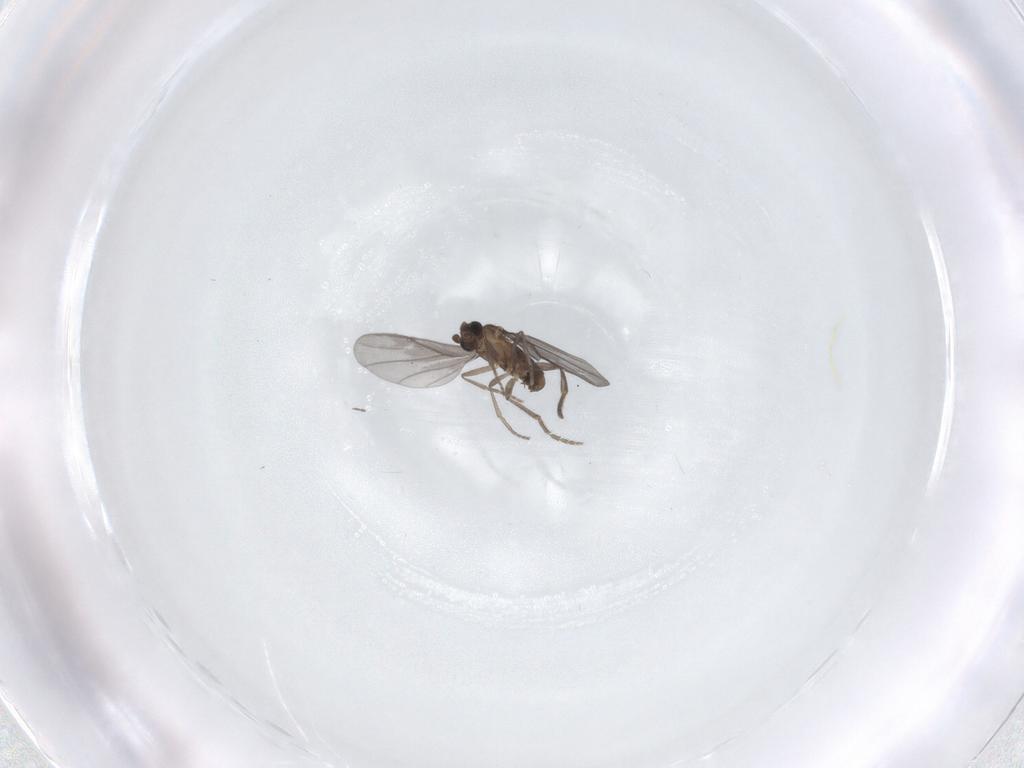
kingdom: Animalia
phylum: Arthropoda
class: Insecta
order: Diptera
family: Phoridae
